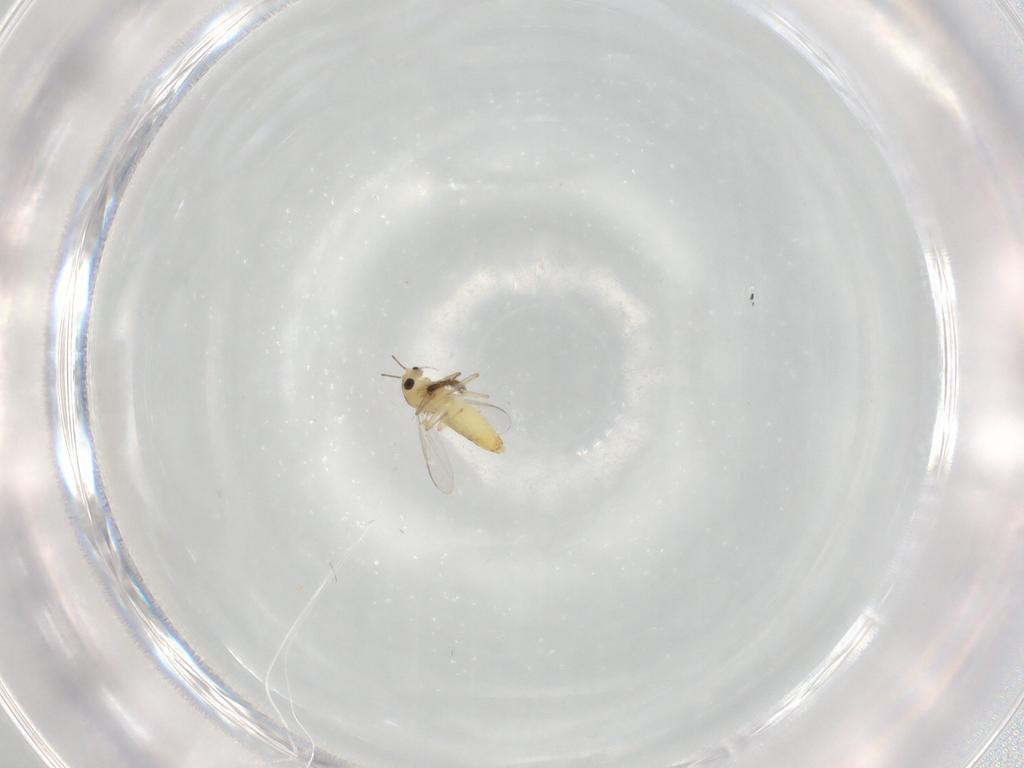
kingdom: Animalia
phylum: Arthropoda
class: Insecta
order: Diptera
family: Chironomidae
